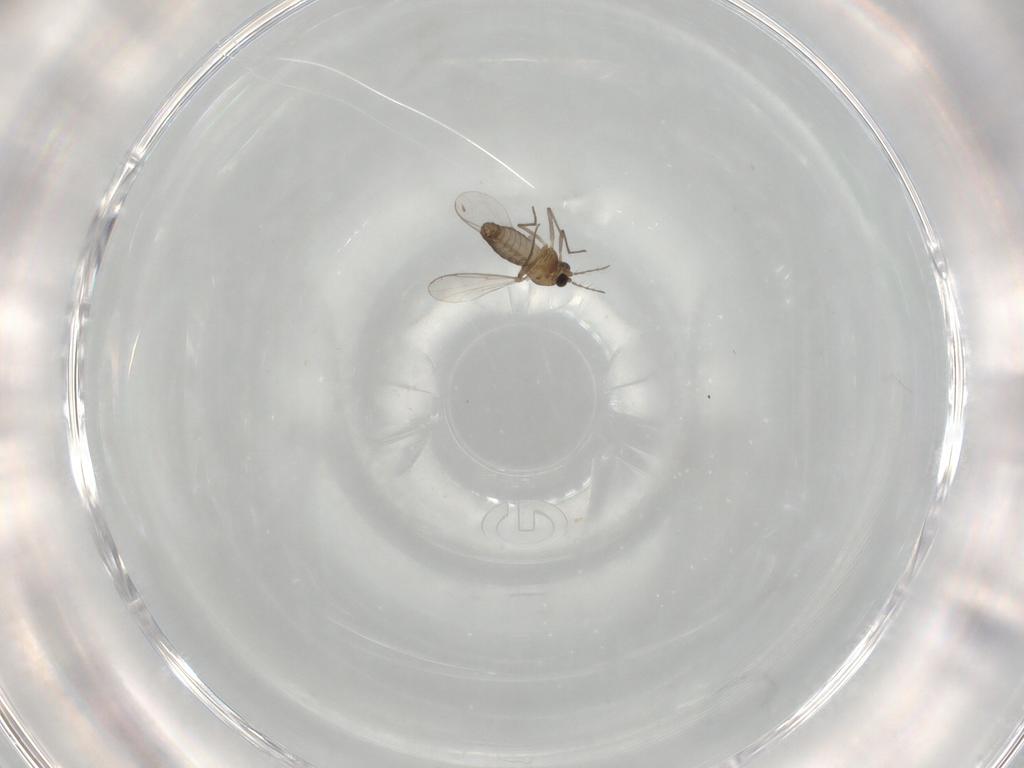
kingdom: Animalia
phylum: Arthropoda
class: Insecta
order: Diptera
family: Chironomidae
